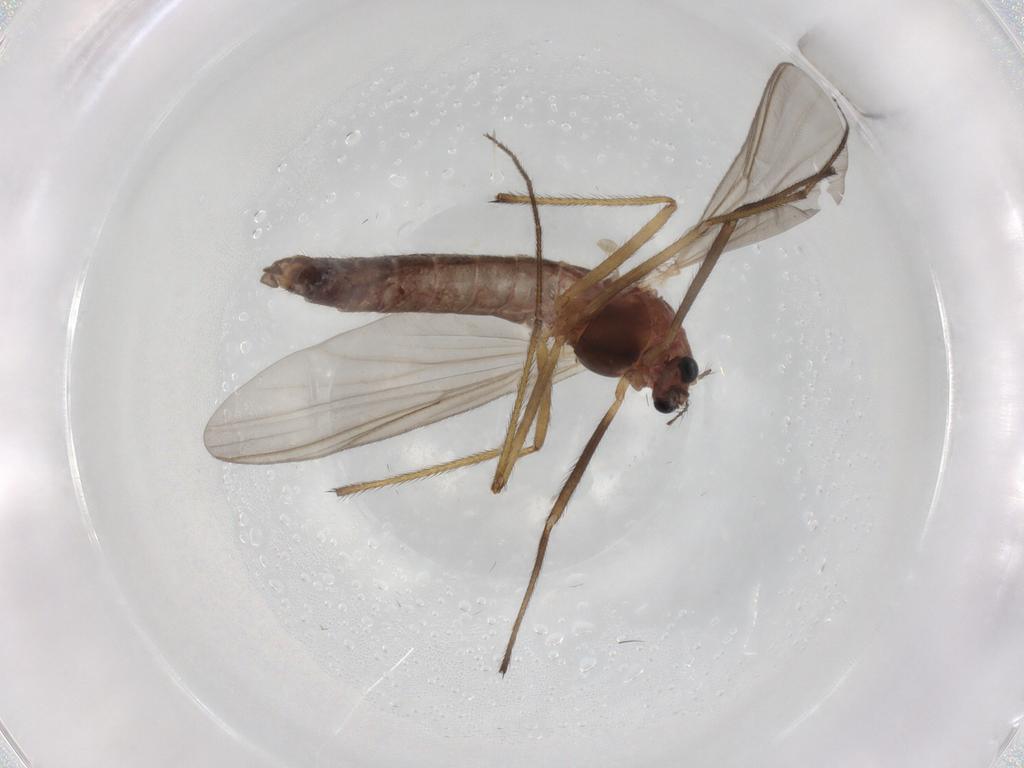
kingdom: Animalia
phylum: Arthropoda
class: Insecta
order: Diptera
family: Chironomidae
